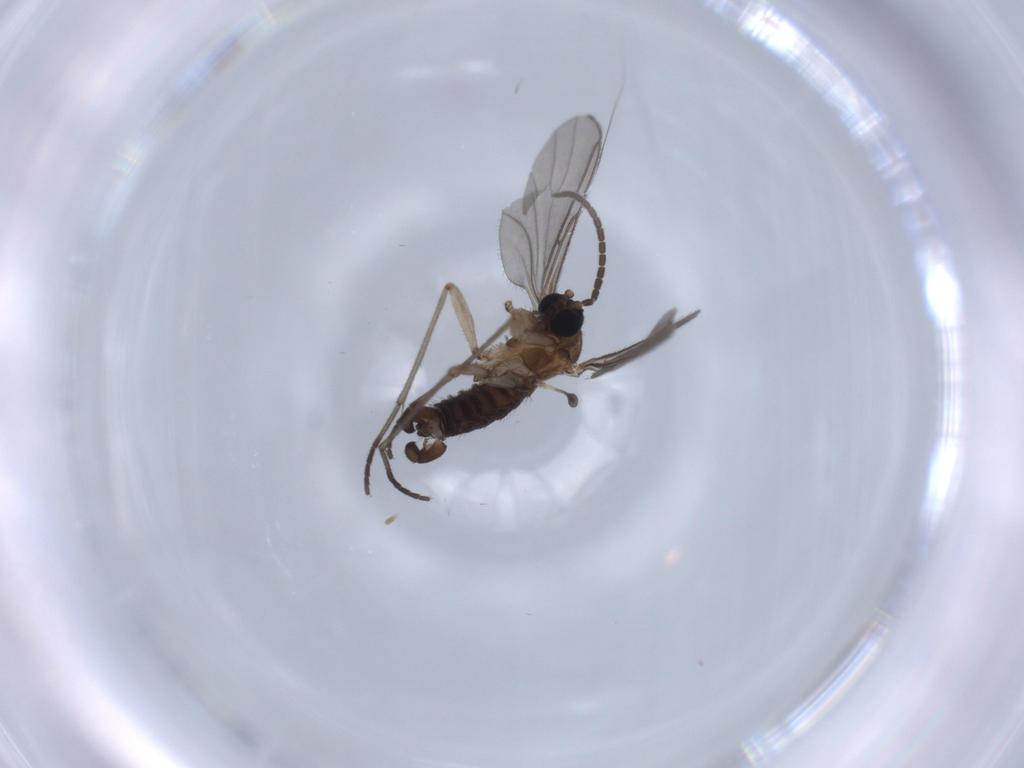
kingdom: Animalia
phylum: Arthropoda
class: Insecta
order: Diptera
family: Sciaridae
